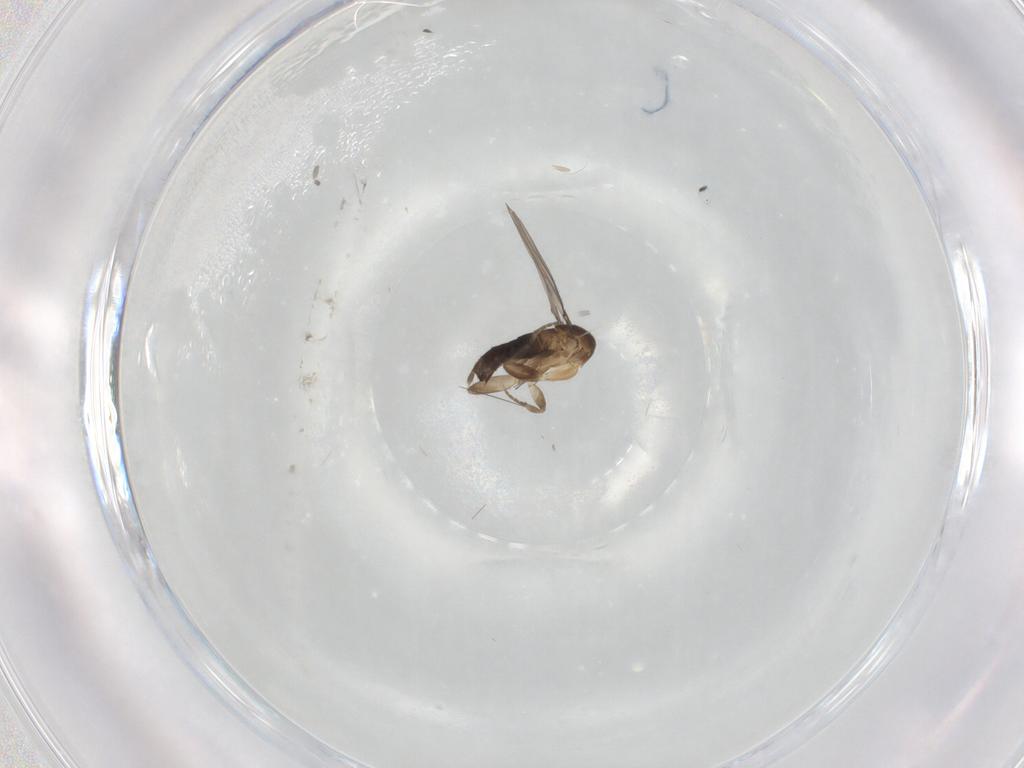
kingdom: Animalia
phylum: Arthropoda
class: Insecta
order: Diptera
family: Phoridae
